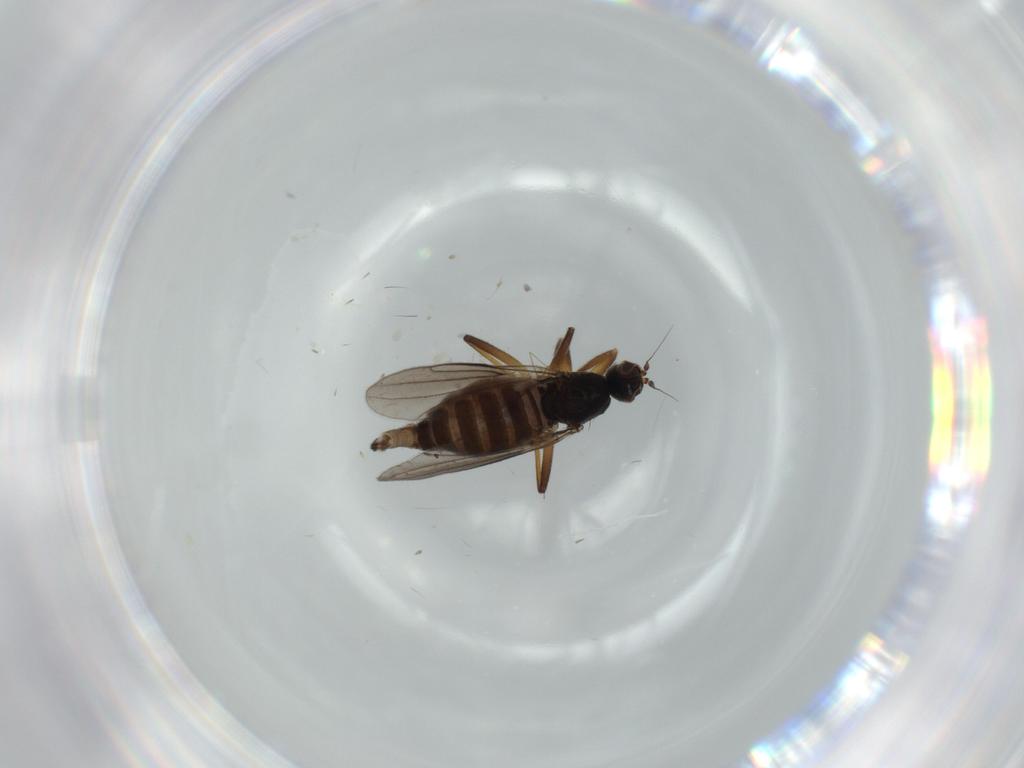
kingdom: Animalia
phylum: Arthropoda
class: Insecta
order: Diptera
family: Hybotidae
